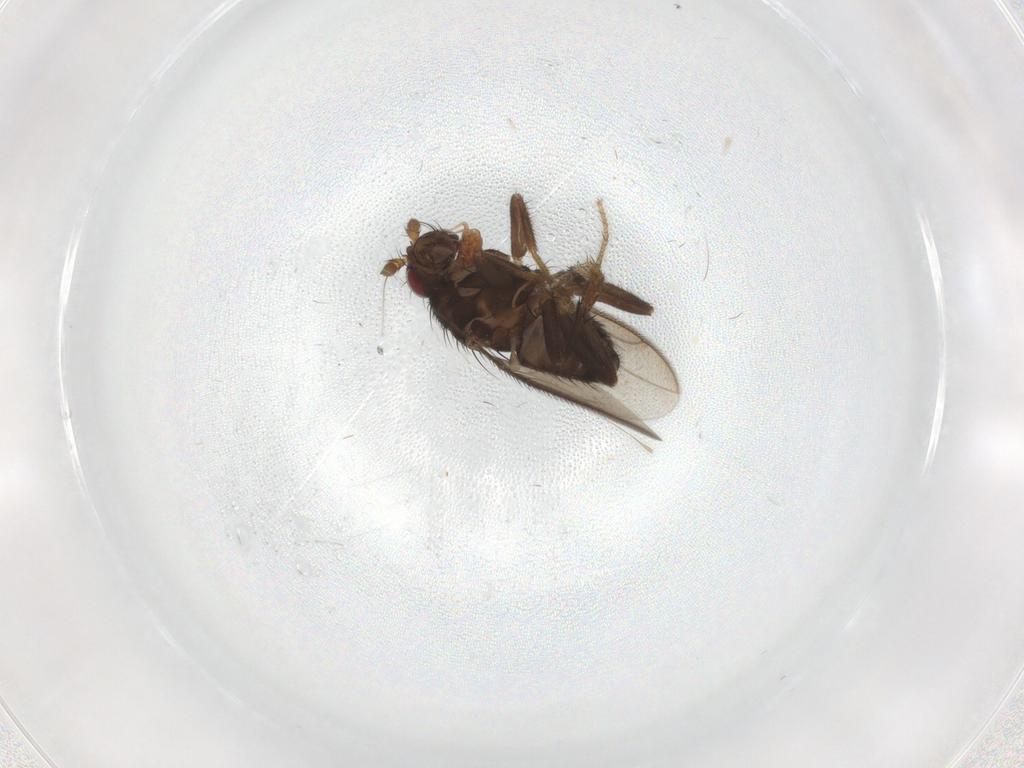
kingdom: Animalia
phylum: Arthropoda
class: Insecta
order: Diptera
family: Sphaeroceridae
